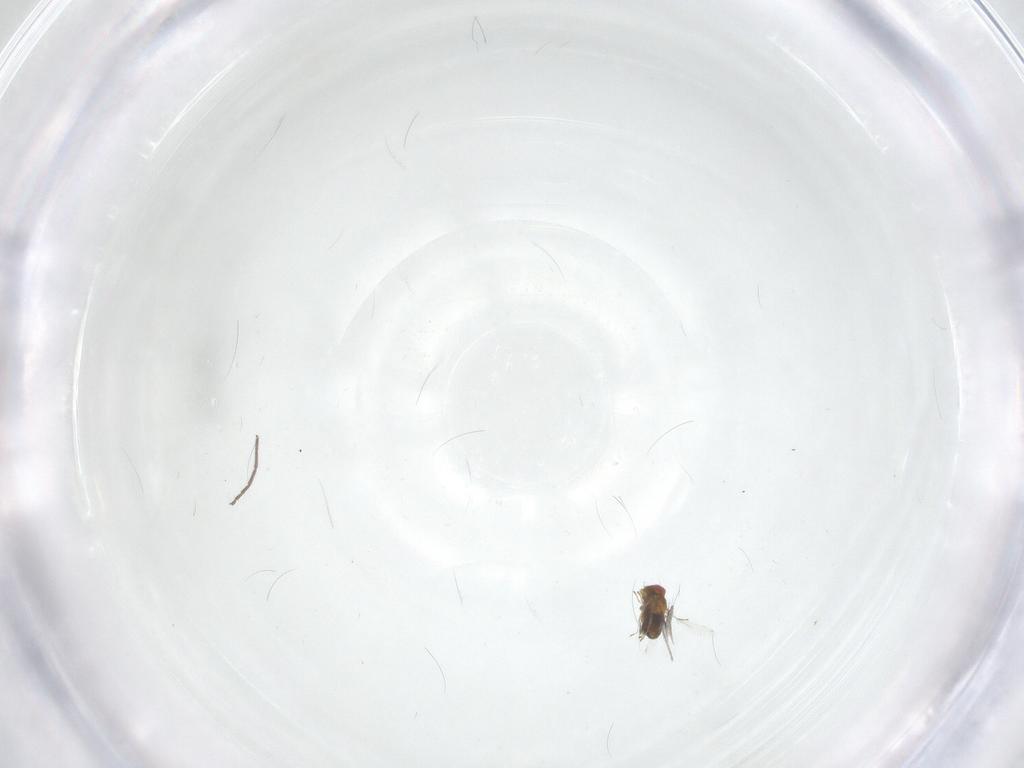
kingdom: Animalia
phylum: Arthropoda
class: Insecta
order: Hymenoptera
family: Trichogrammatidae
